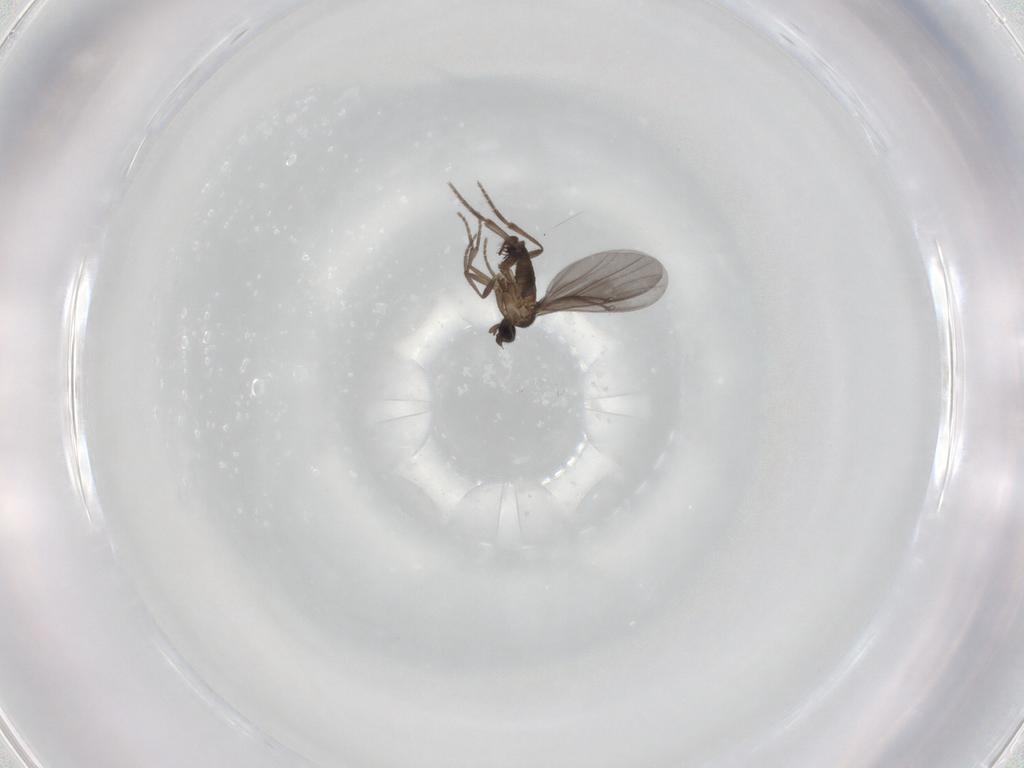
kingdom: Animalia
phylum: Arthropoda
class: Insecta
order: Diptera
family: Phoridae
